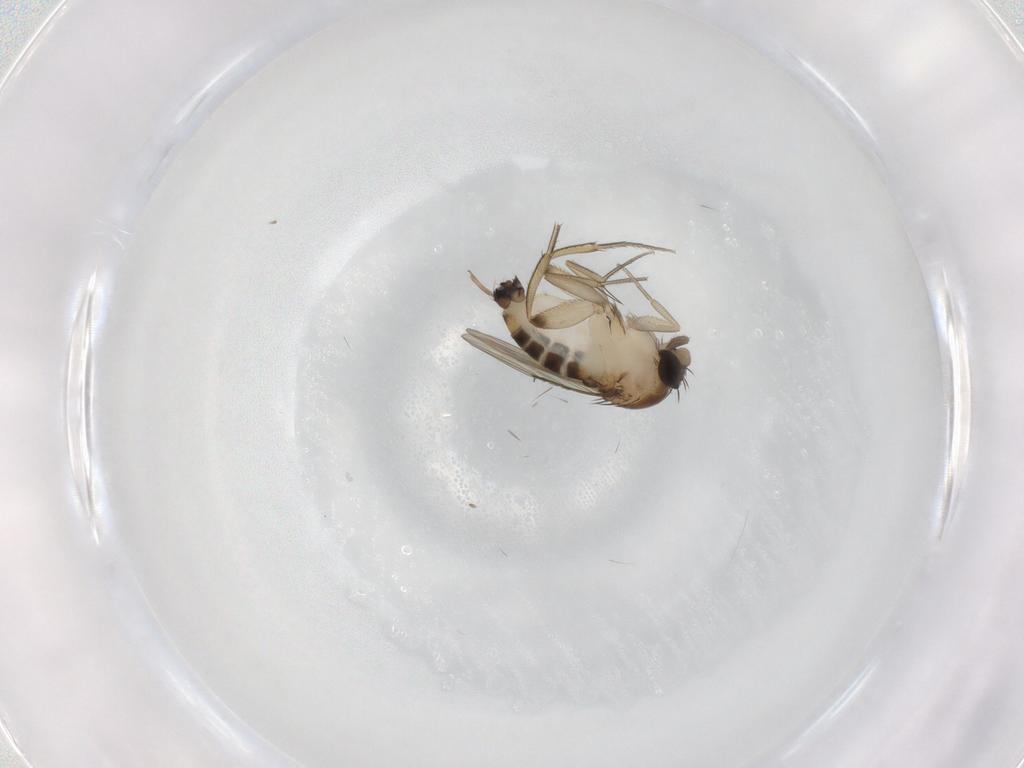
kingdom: Animalia
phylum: Arthropoda
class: Insecta
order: Diptera
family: Phoridae
